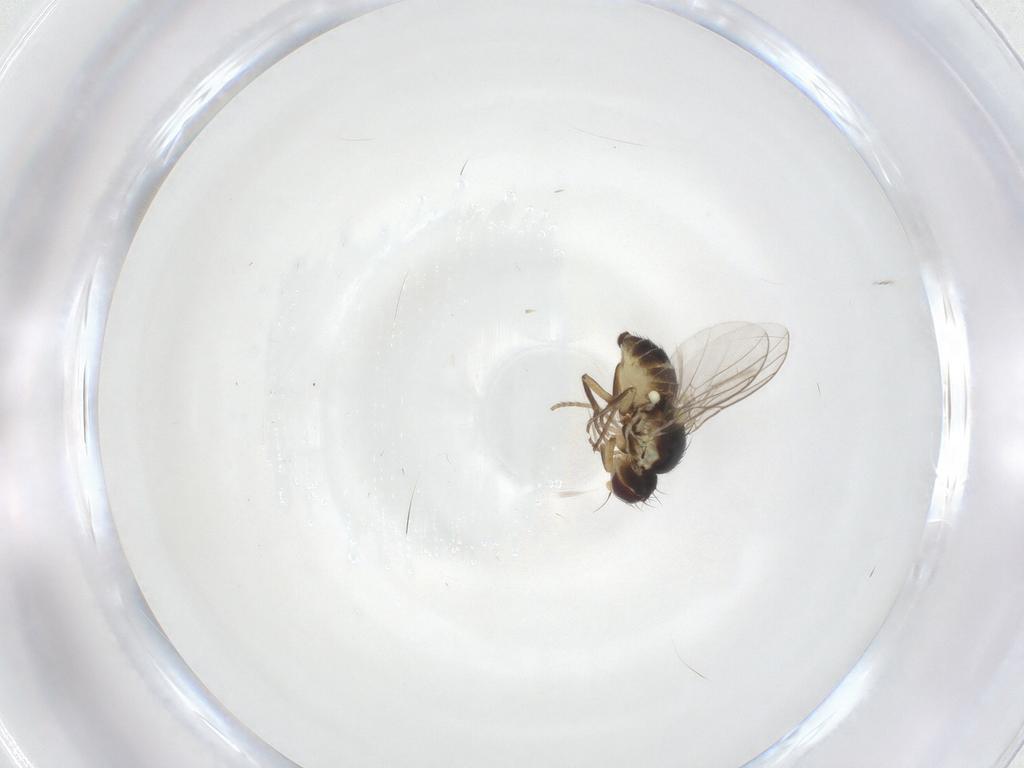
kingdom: Animalia
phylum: Arthropoda
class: Insecta
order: Diptera
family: Agromyzidae
